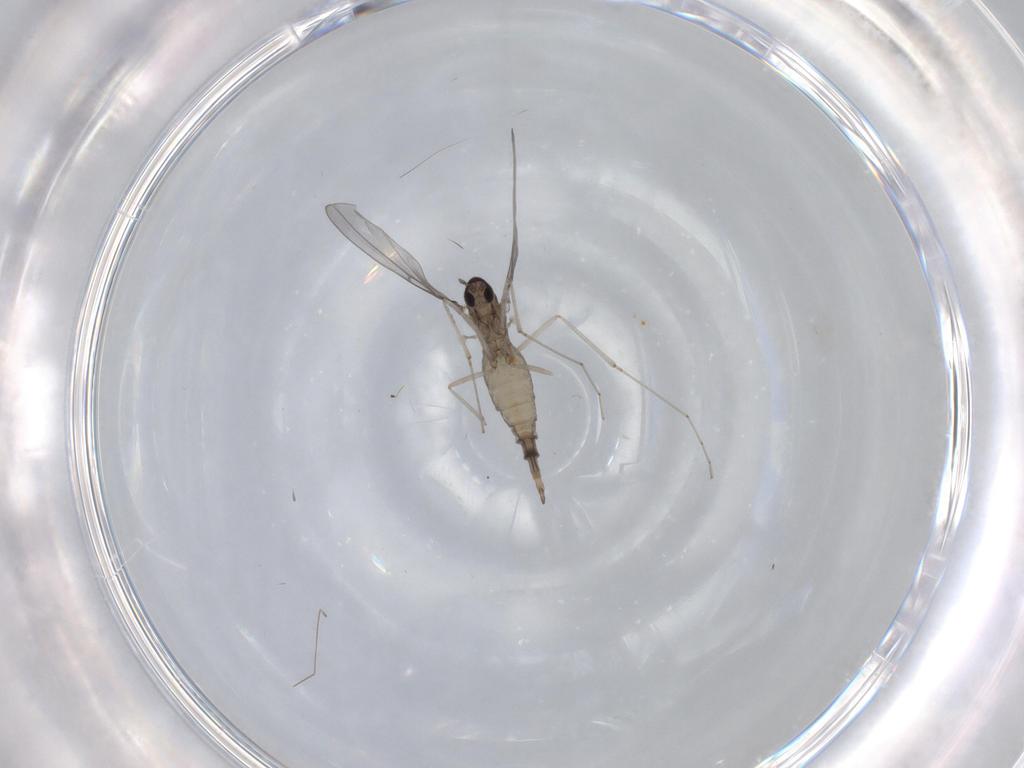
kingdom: Animalia
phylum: Arthropoda
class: Insecta
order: Diptera
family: Cecidomyiidae
